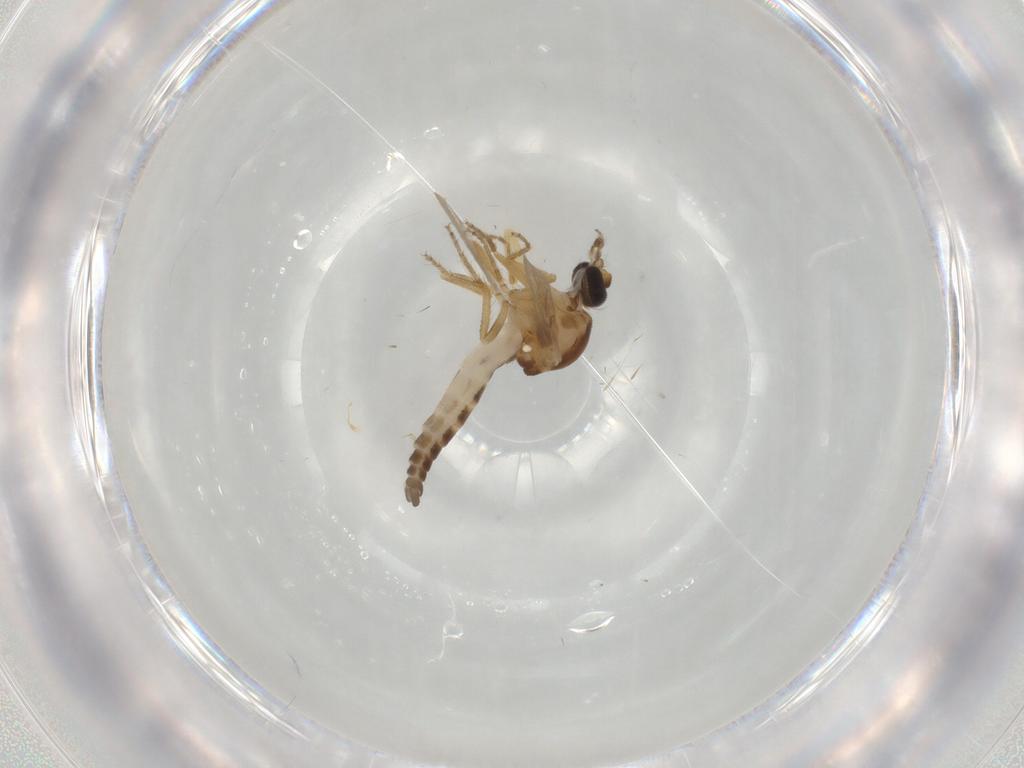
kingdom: Animalia
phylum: Arthropoda
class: Insecta
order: Diptera
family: Ceratopogonidae
